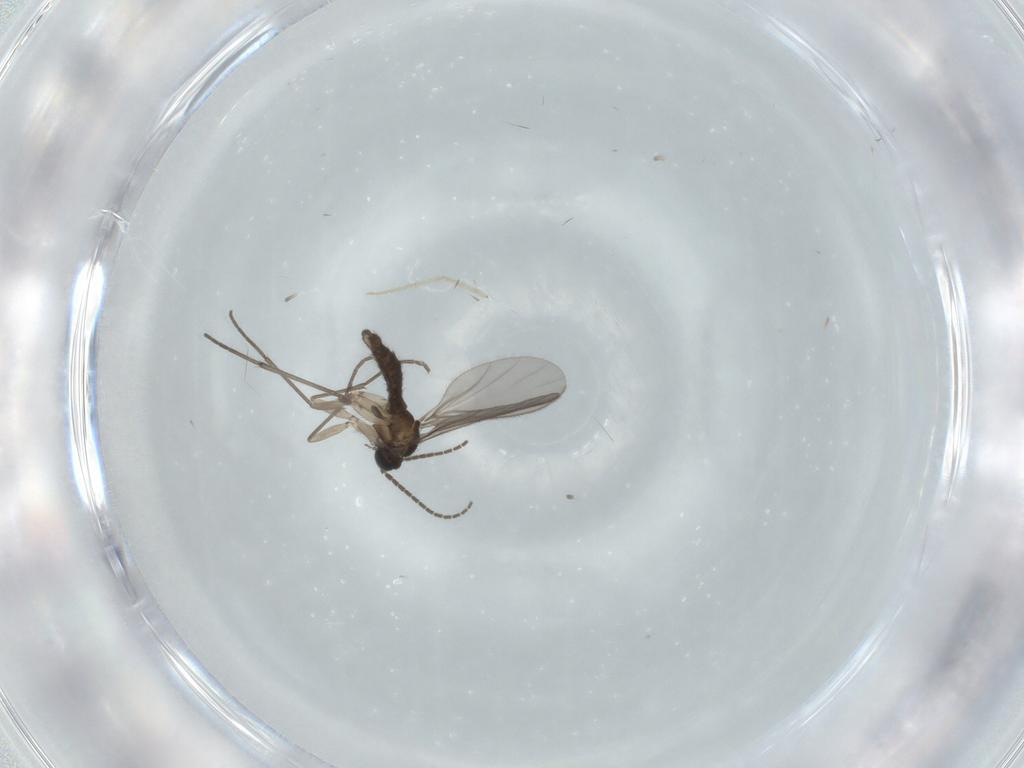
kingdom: Animalia
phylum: Arthropoda
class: Insecta
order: Diptera
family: Sciaridae
